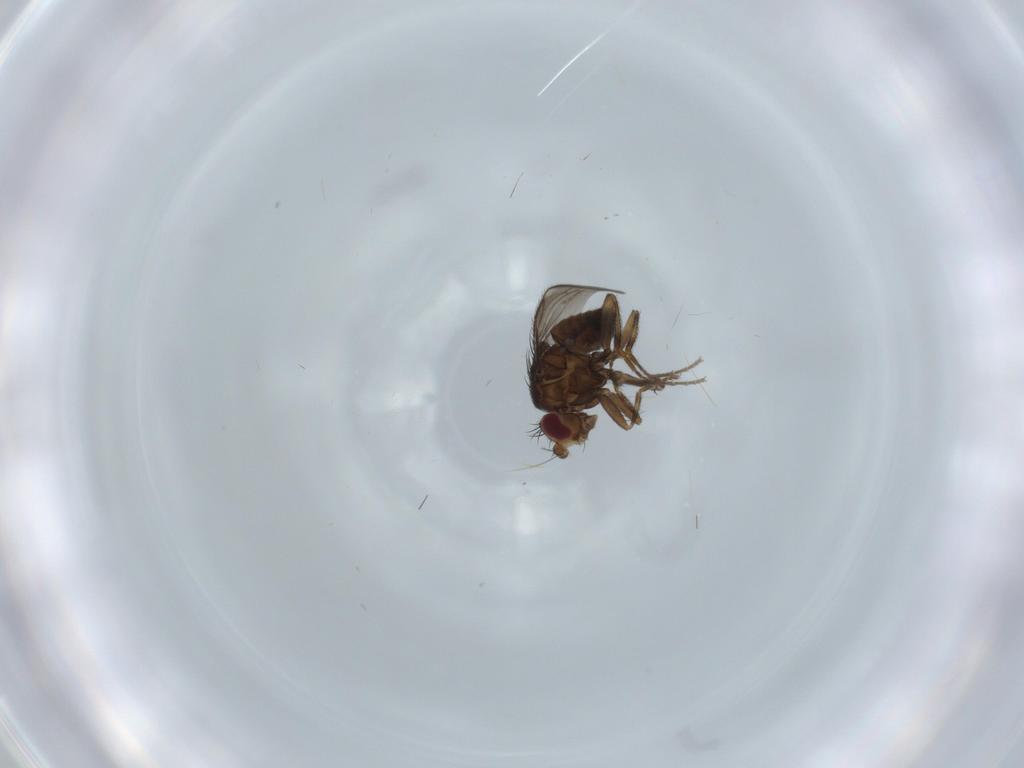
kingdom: Animalia
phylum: Arthropoda
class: Insecta
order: Diptera
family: Sphaeroceridae
